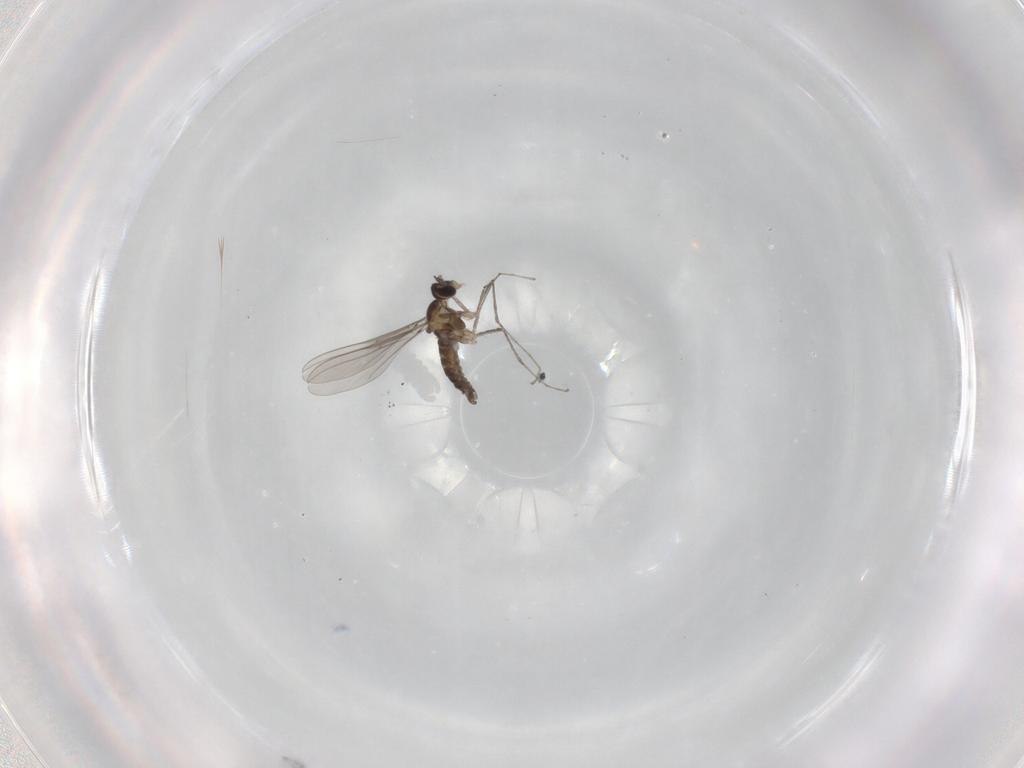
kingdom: Animalia
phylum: Arthropoda
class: Insecta
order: Diptera
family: Cecidomyiidae
